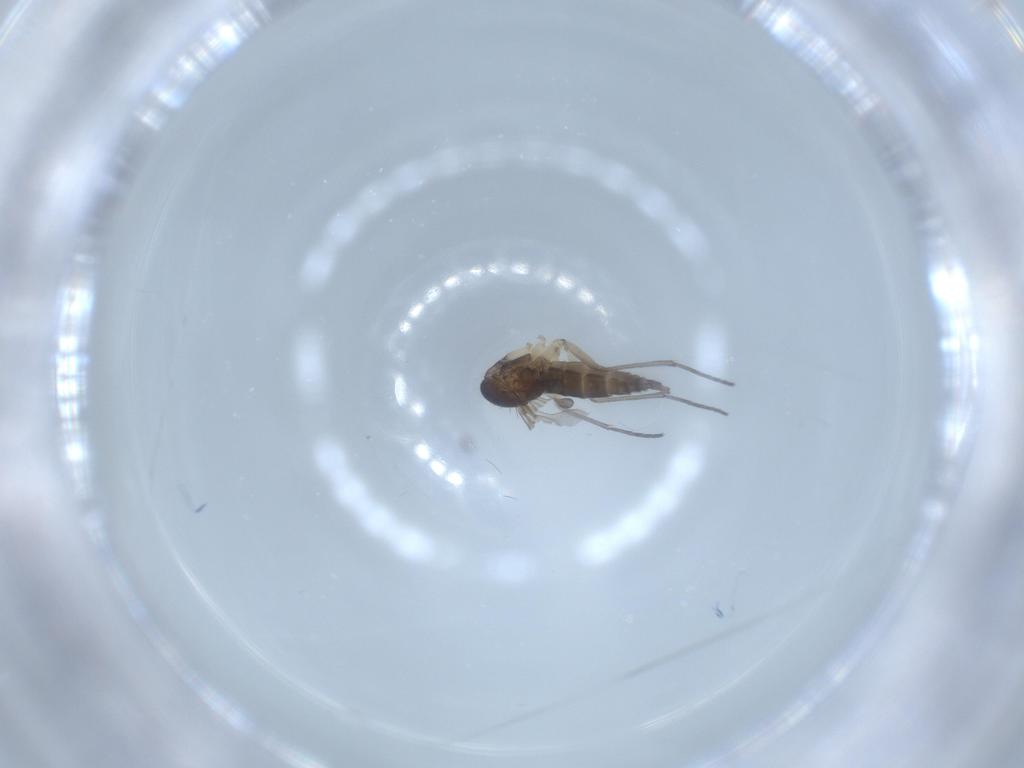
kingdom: Animalia
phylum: Arthropoda
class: Insecta
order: Diptera
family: Sciaridae
